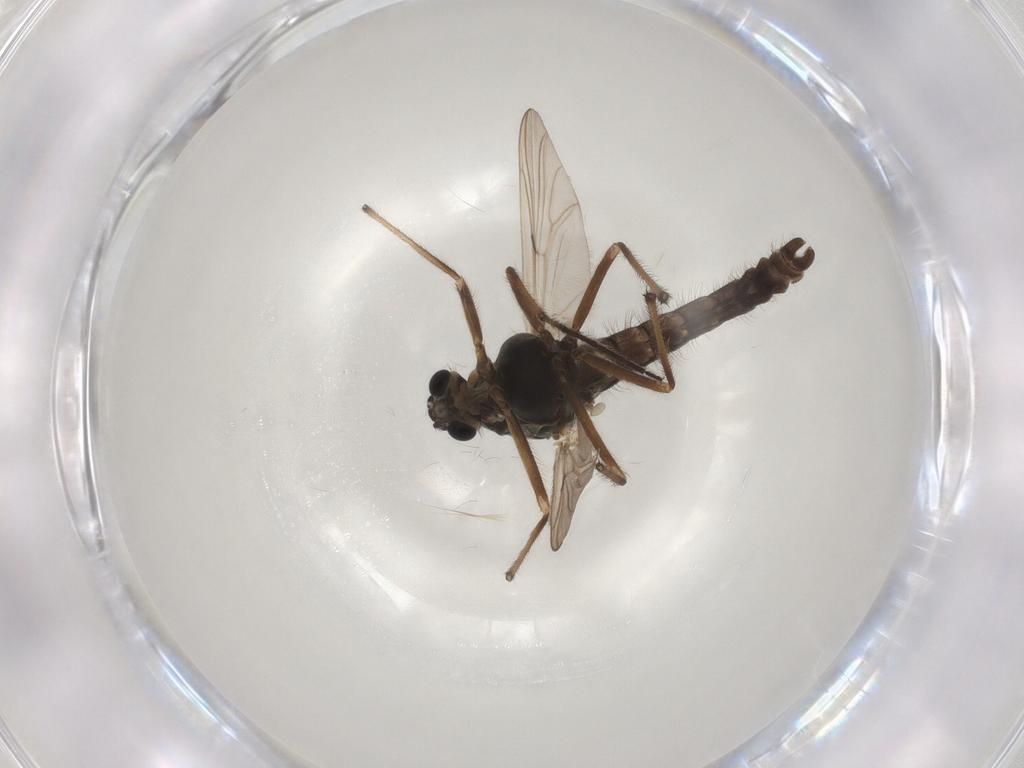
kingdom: Animalia
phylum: Arthropoda
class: Insecta
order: Diptera
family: Chironomidae
